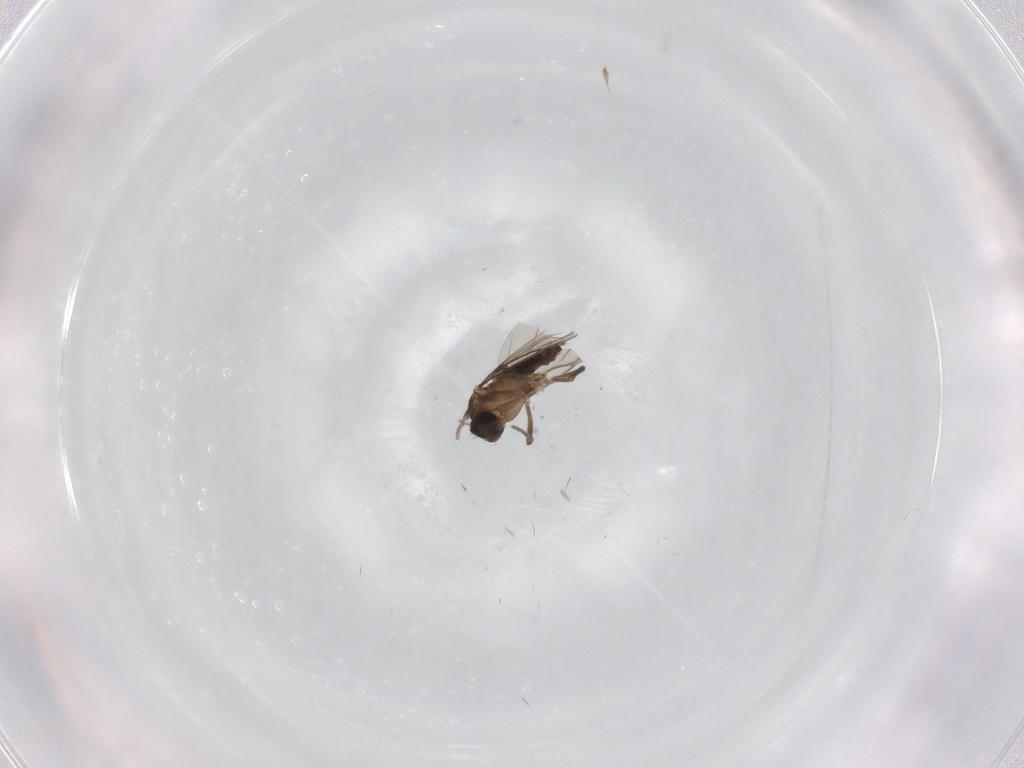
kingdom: Animalia
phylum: Arthropoda
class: Insecta
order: Diptera
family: Phoridae
